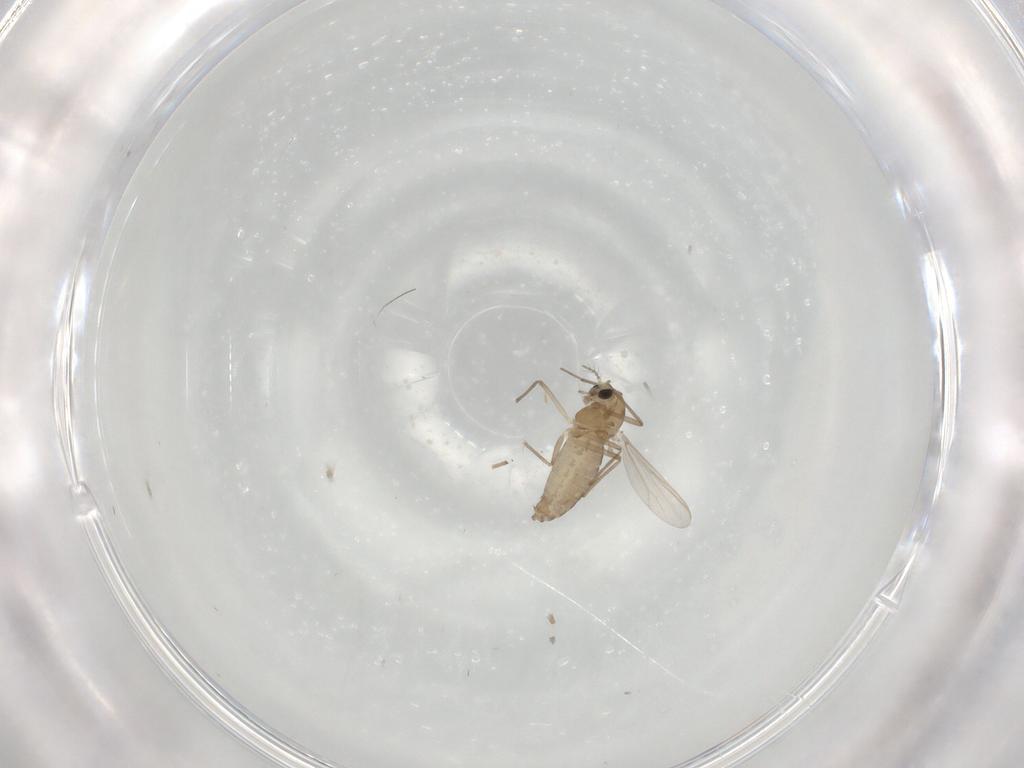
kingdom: Animalia
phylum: Arthropoda
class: Insecta
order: Diptera
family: Chironomidae
